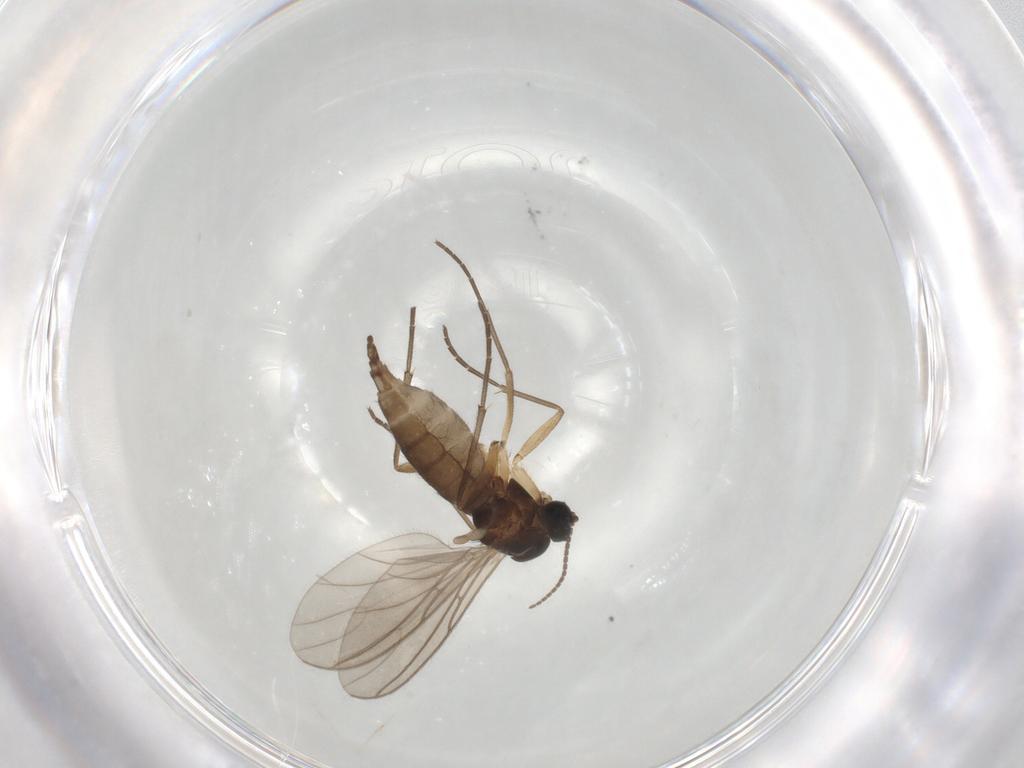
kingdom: Animalia
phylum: Arthropoda
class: Insecta
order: Diptera
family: Sciaridae
